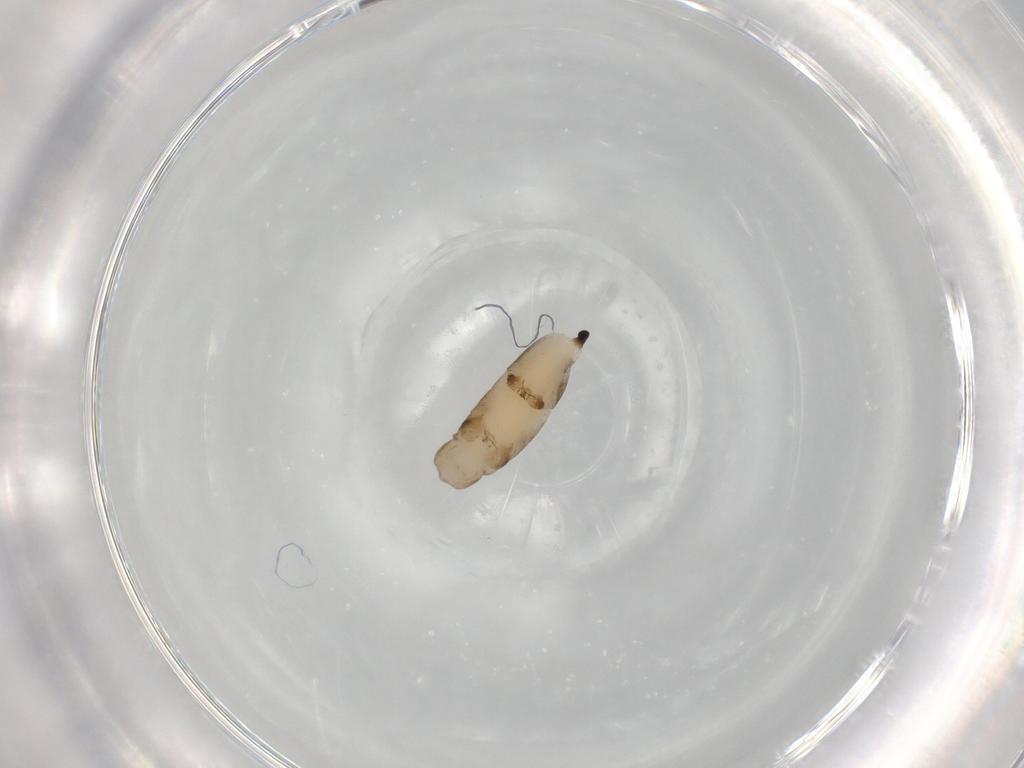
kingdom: Animalia
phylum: Arthropoda
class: Insecta
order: Hymenoptera
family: Rhopalosomatidae
